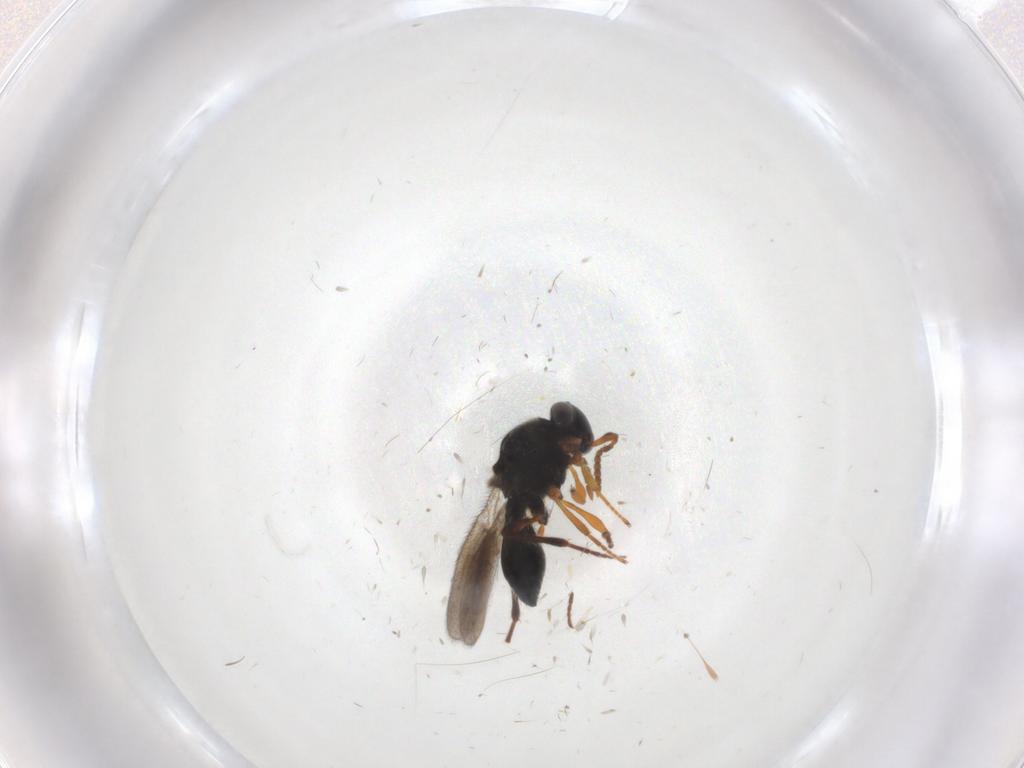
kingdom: Animalia
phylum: Arthropoda
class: Insecta
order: Hymenoptera
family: Platygastridae
